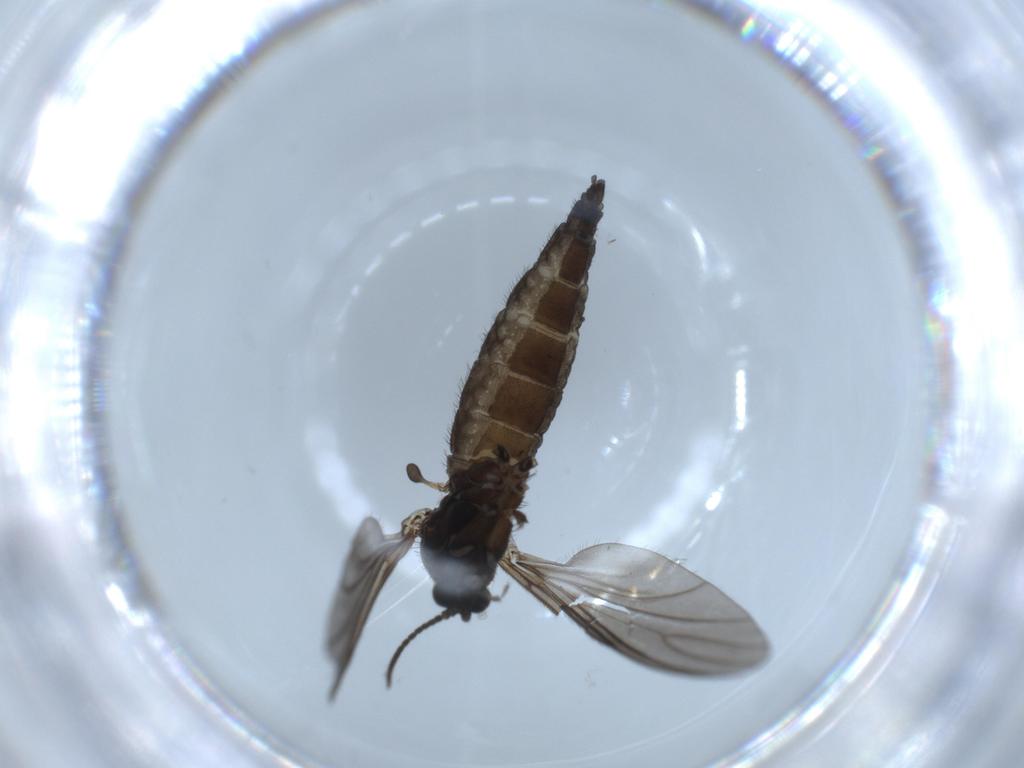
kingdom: Animalia
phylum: Arthropoda
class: Insecta
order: Diptera
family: Sciaridae
